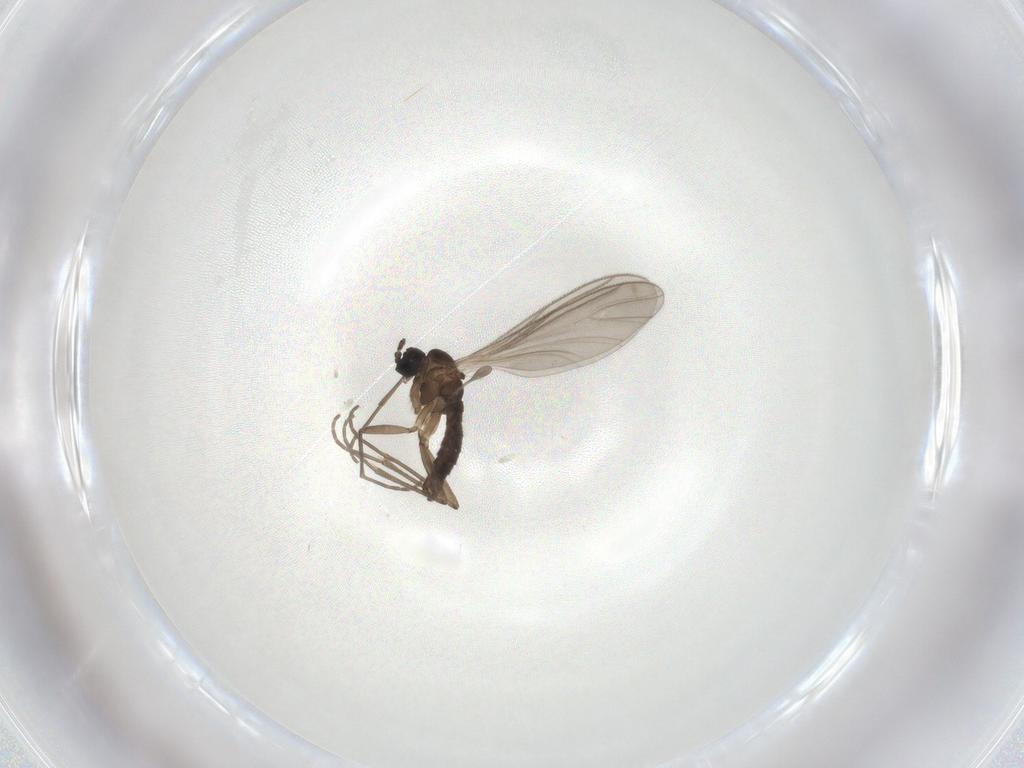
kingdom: Animalia
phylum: Arthropoda
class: Insecta
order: Diptera
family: Sciaridae
